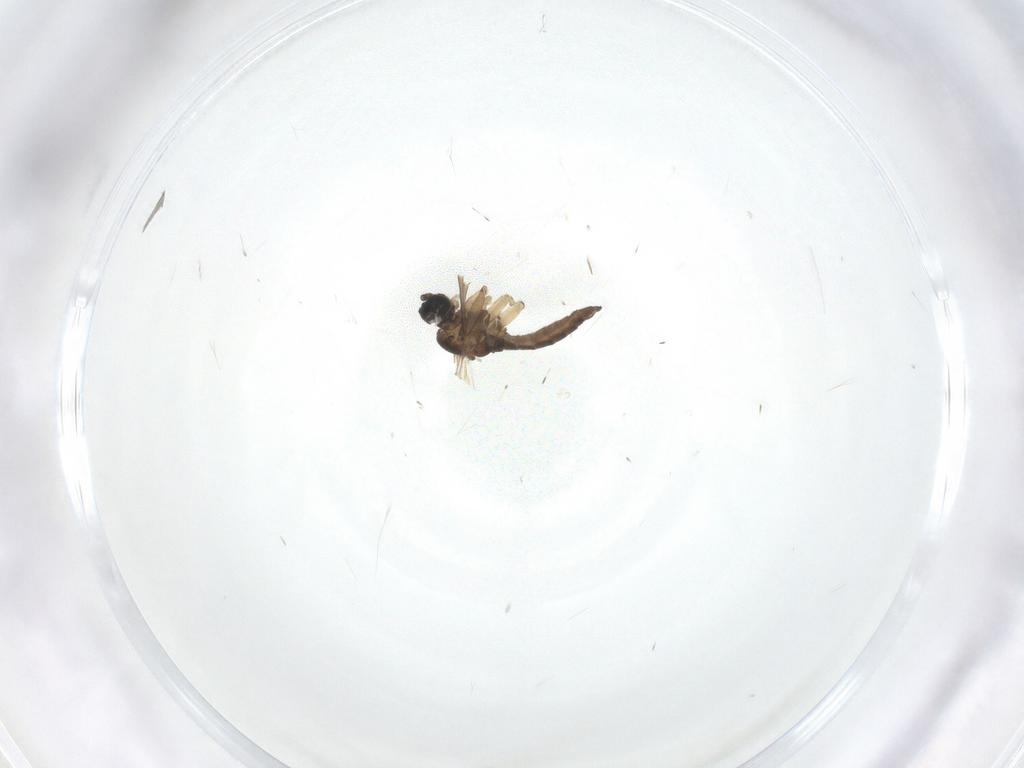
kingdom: Animalia
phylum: Arthropoda
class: Insecta
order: Diptera
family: Sciaridae
